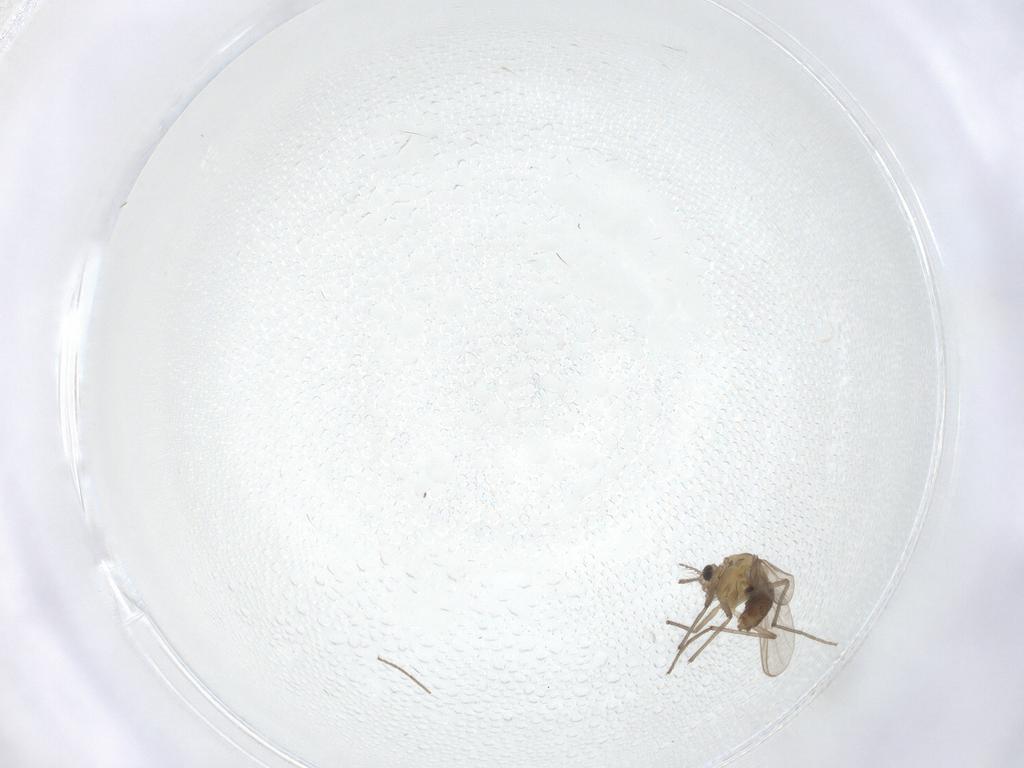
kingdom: Animalia
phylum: Arthropoda
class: Insecta
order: Diptera
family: Chironomidae
